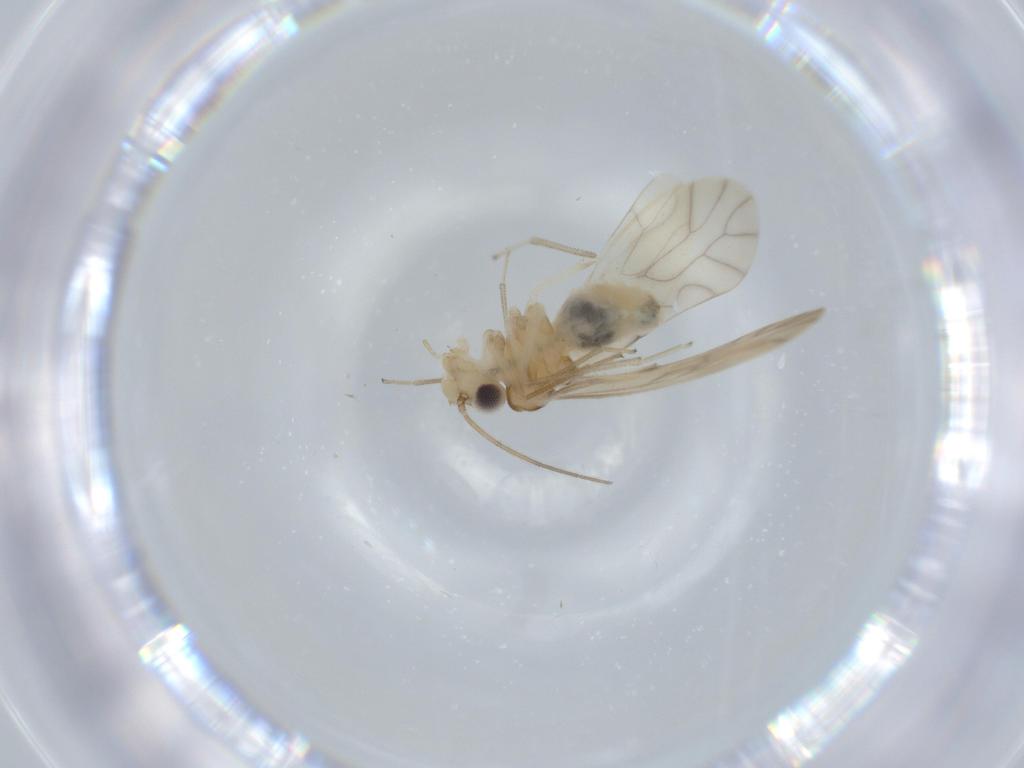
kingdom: Animalia
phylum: Arthropoda
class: Insecta
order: Psocodea
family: Caeciliusidae
